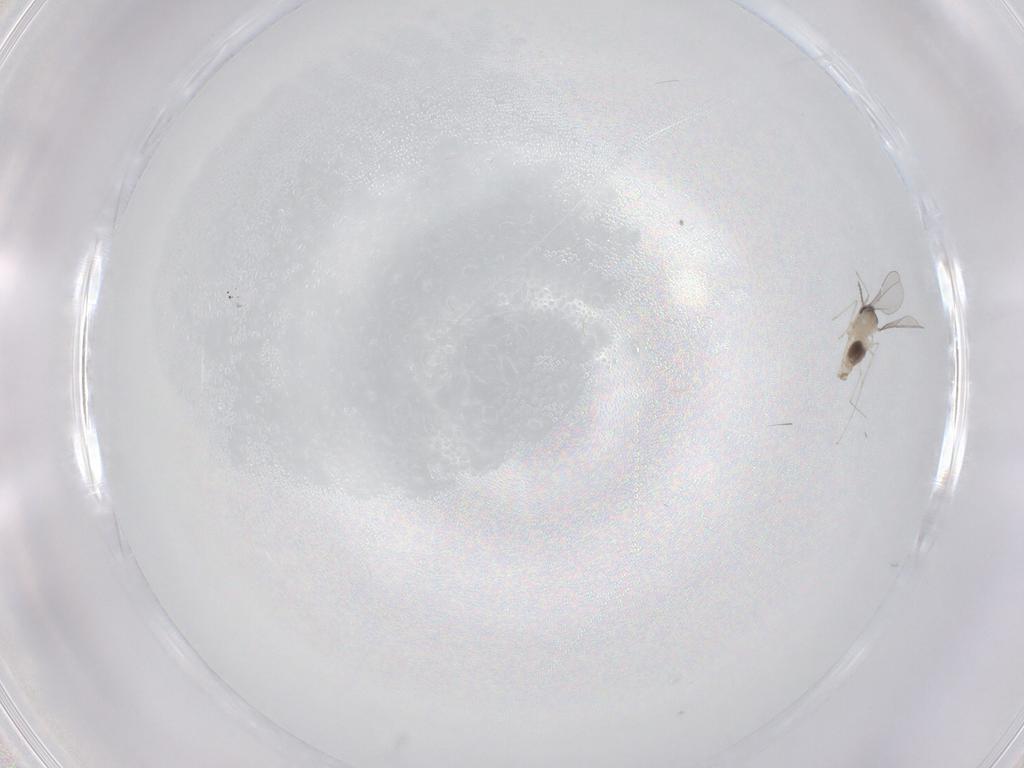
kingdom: Animalia
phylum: Arthropoda
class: Insecta
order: Diptera
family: Cecidomyiidae
